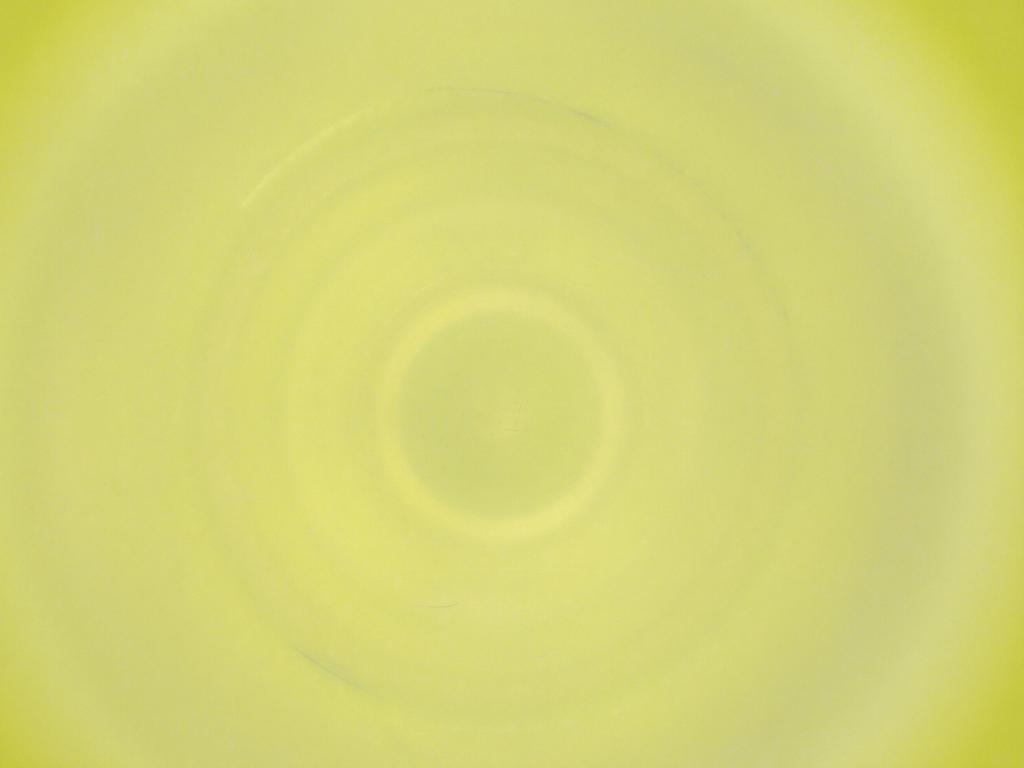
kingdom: Animalia
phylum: Arthropoda
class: Insecta
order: Diptera
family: Cecidomyiidae
